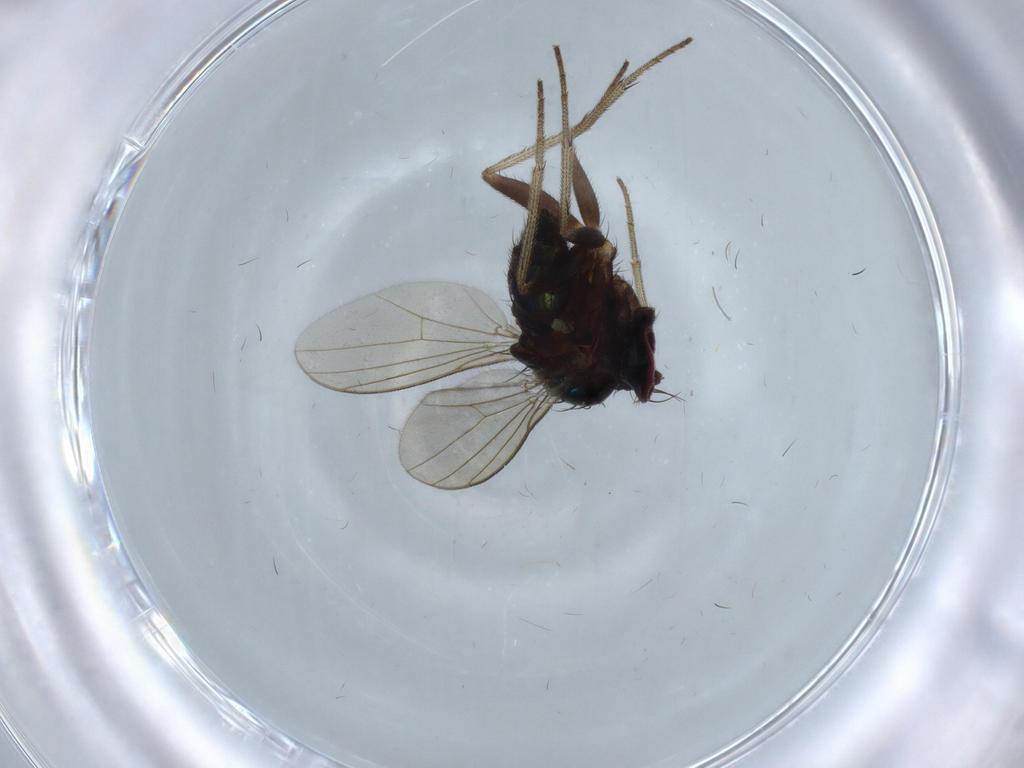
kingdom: Animalia
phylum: Arthropoda
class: Insecta
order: Diptera
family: Dolichopodidae
